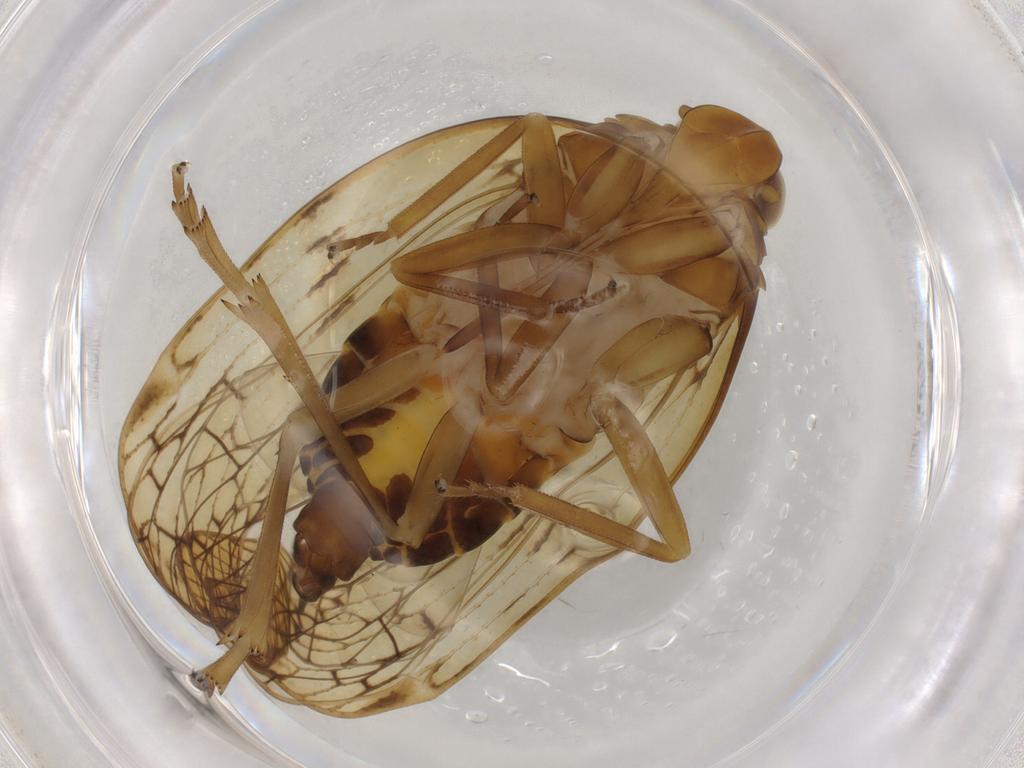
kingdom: Animalia
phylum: Arthropoda
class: Insecta
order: Hemiptera
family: Cixiidae
